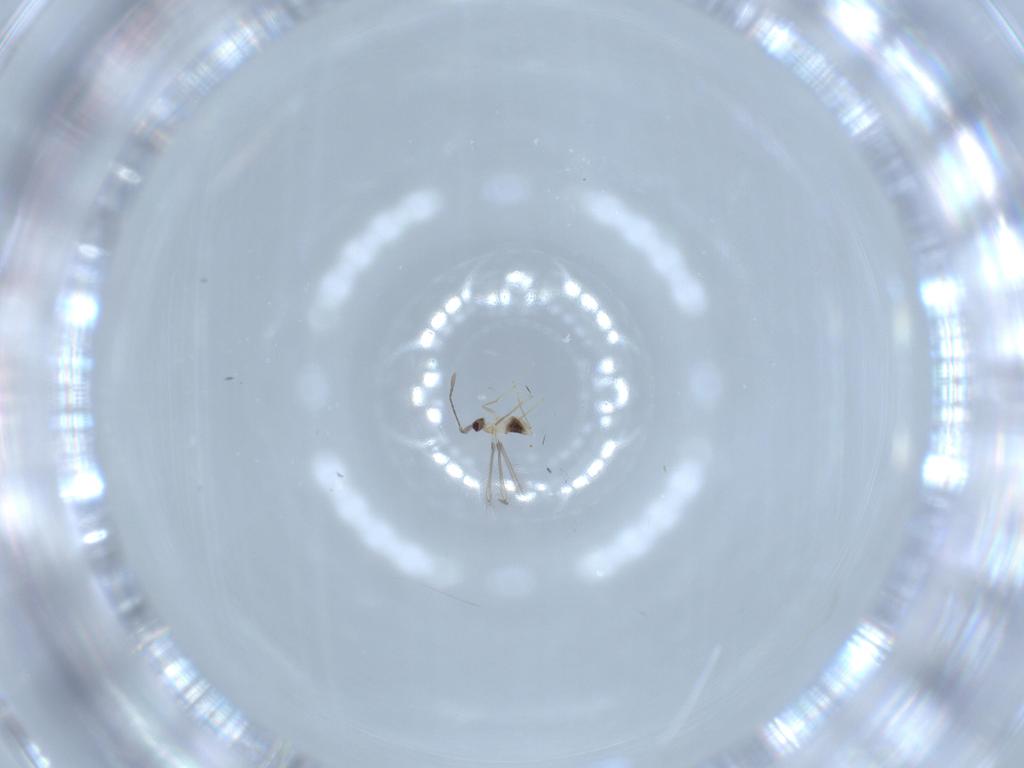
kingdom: Animalia
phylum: Arthropoda
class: Insecta
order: Hymenoptera
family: Mymaridae
